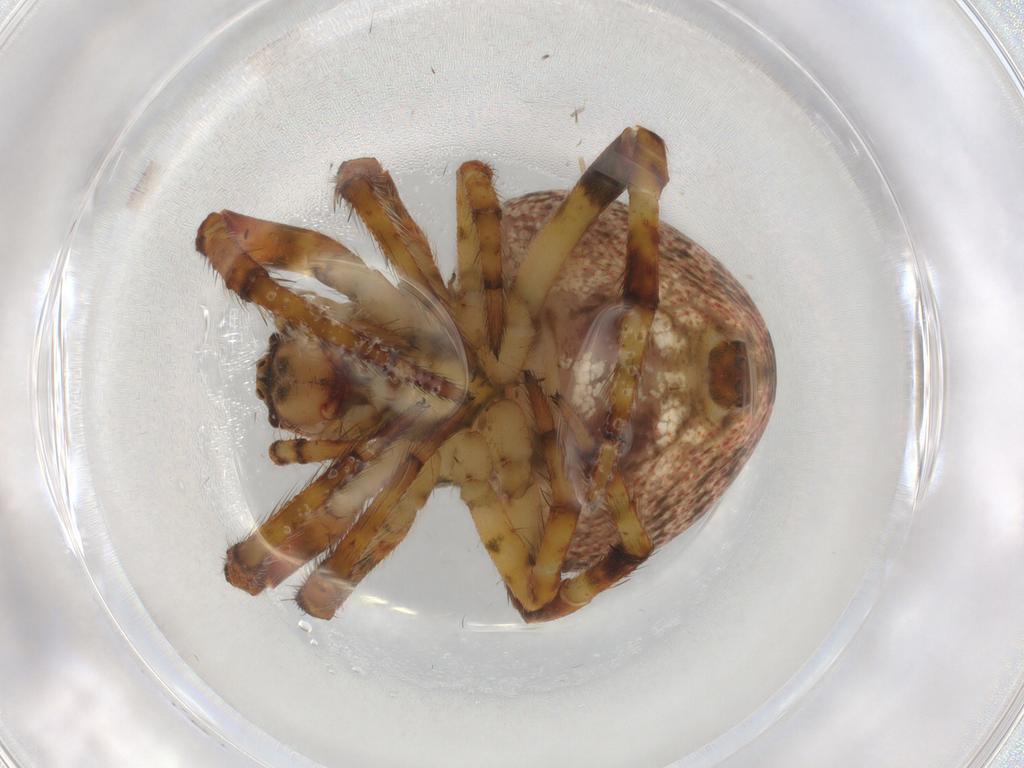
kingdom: Animalia
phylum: Arthropoda
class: Arachnida
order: Araneae
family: Araneidae
